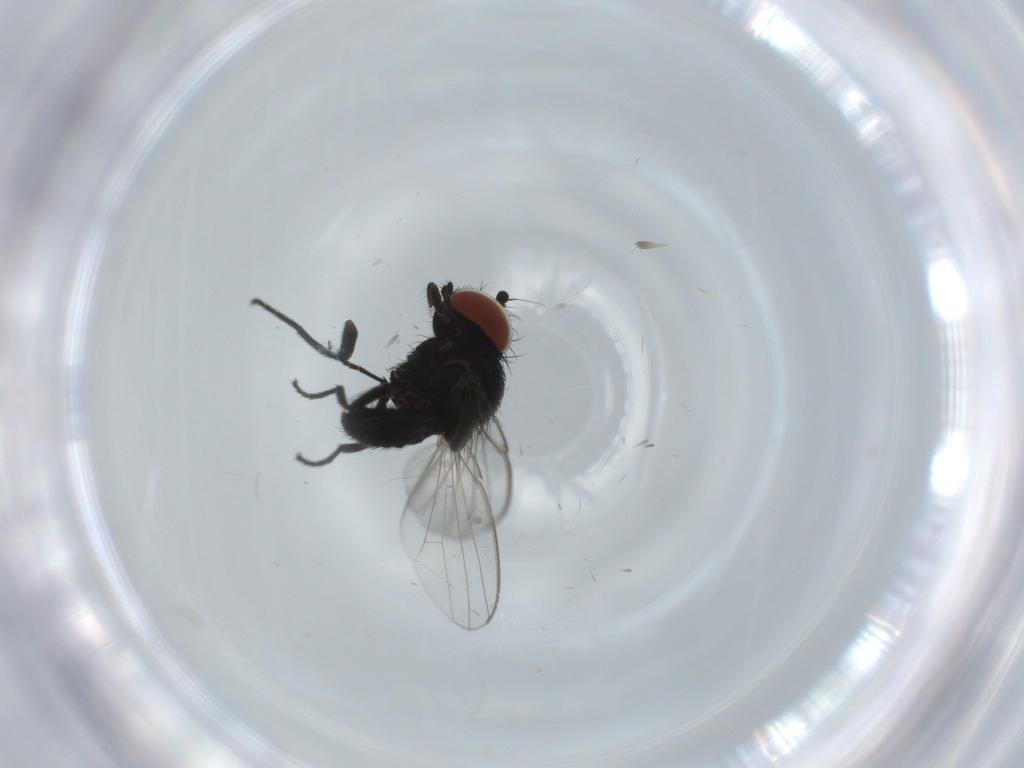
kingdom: Animalia
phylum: Arthropoda
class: Insecta
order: Diptera
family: Milichiidae
